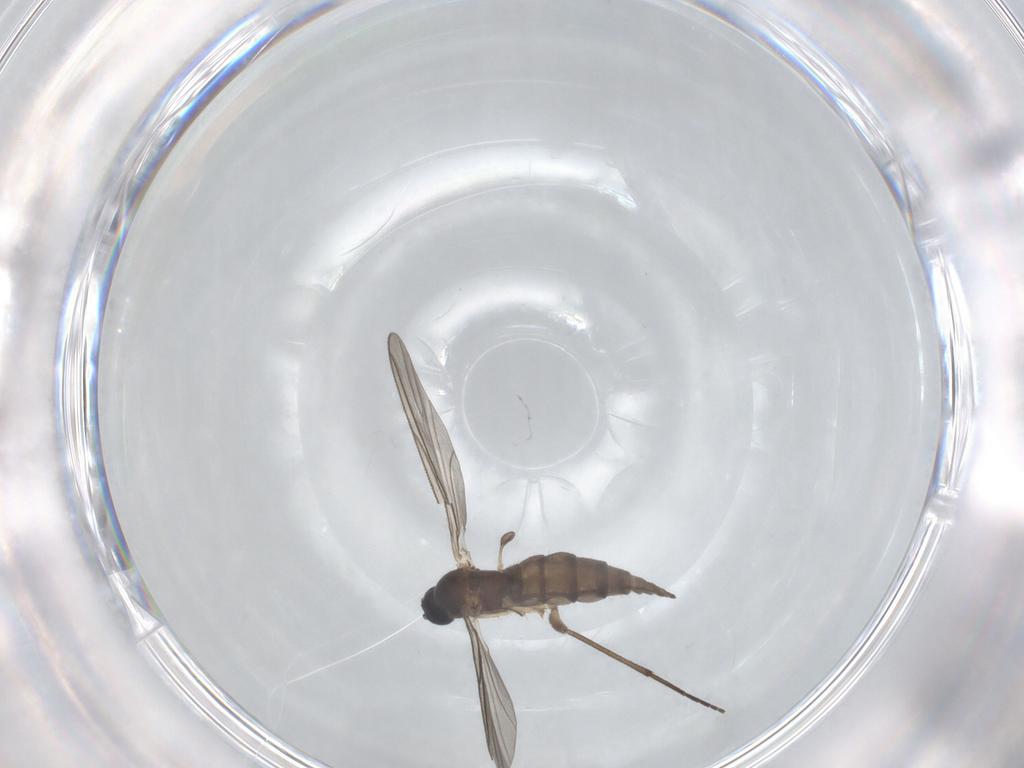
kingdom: Animalia
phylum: Arthropoda
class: Insecta
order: Diptera
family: Sciaridae
